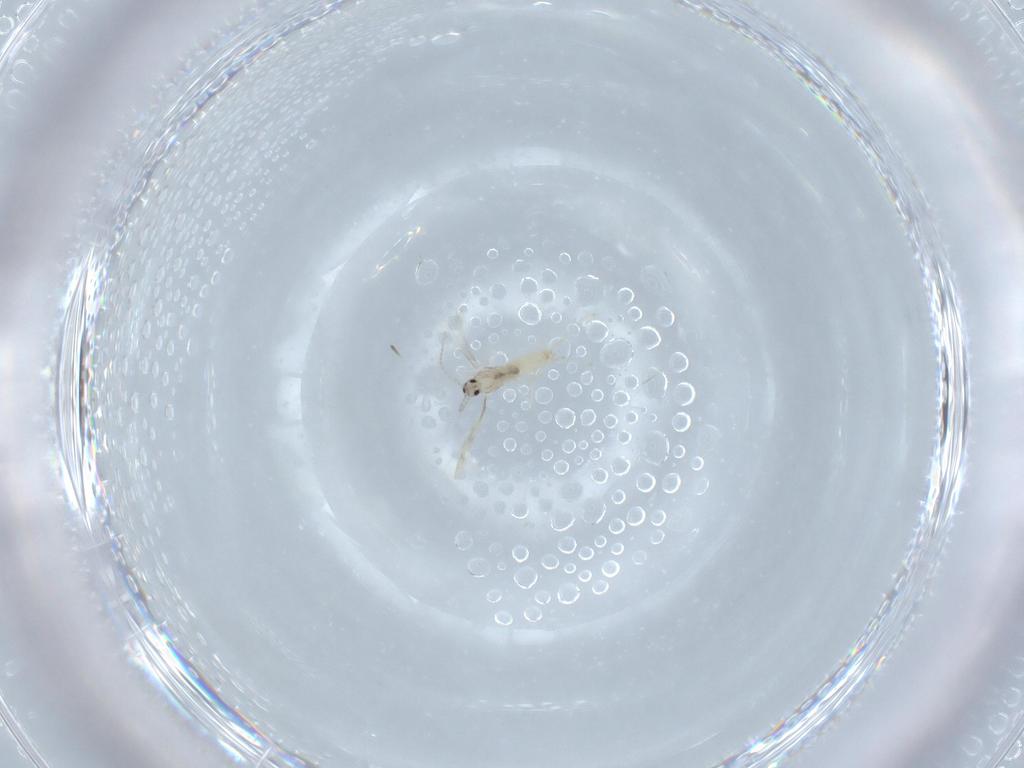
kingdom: Animalia
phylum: Arthropoda
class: Insecta
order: Diptera
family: Cecidomyiidae
